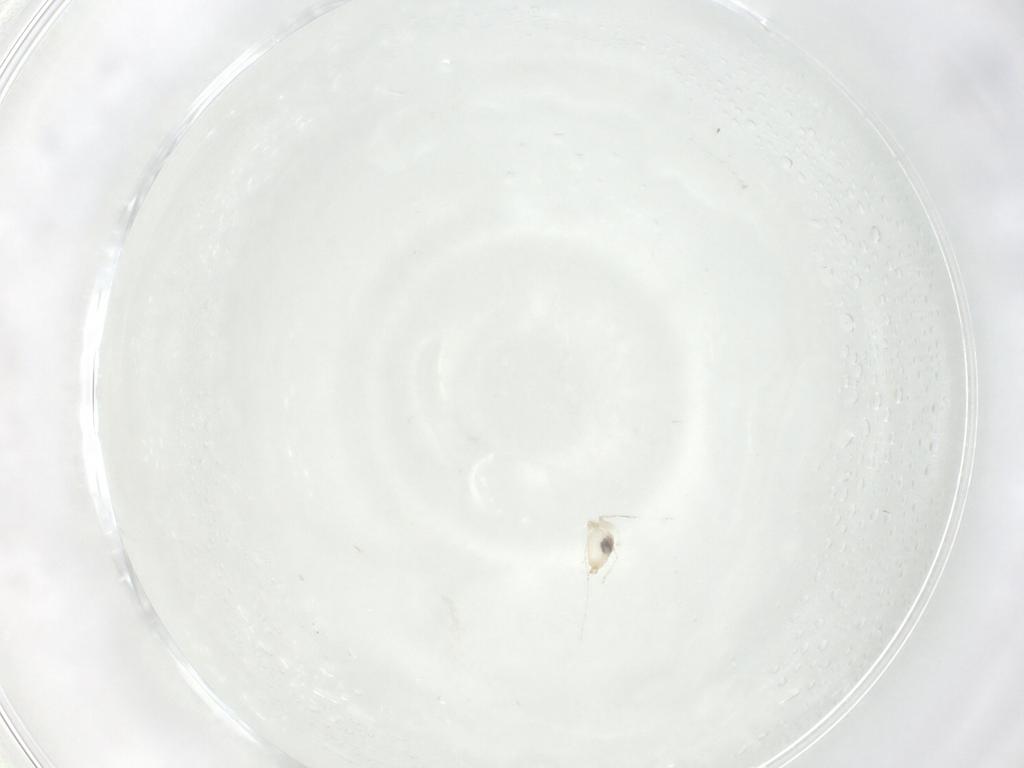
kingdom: Animalia
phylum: Arthropoda
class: Insecta
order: Diptera
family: Cecidomyiidae
